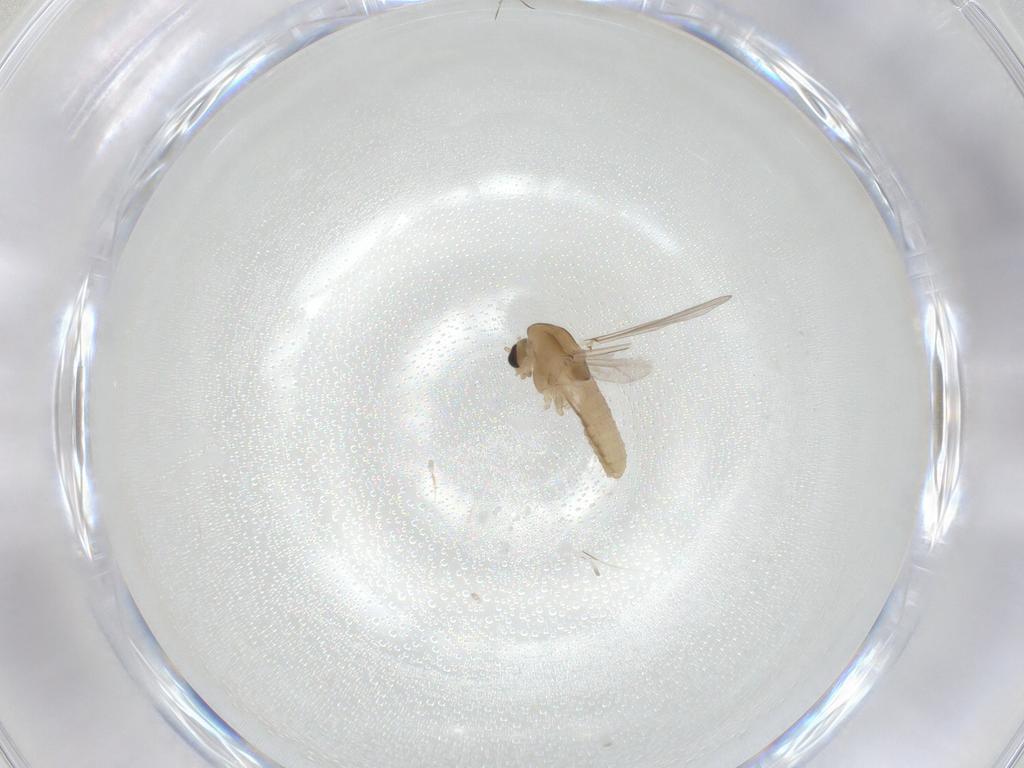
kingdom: Animalia
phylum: Arthropoda
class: Insecta
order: Diptera
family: Chironomidae
